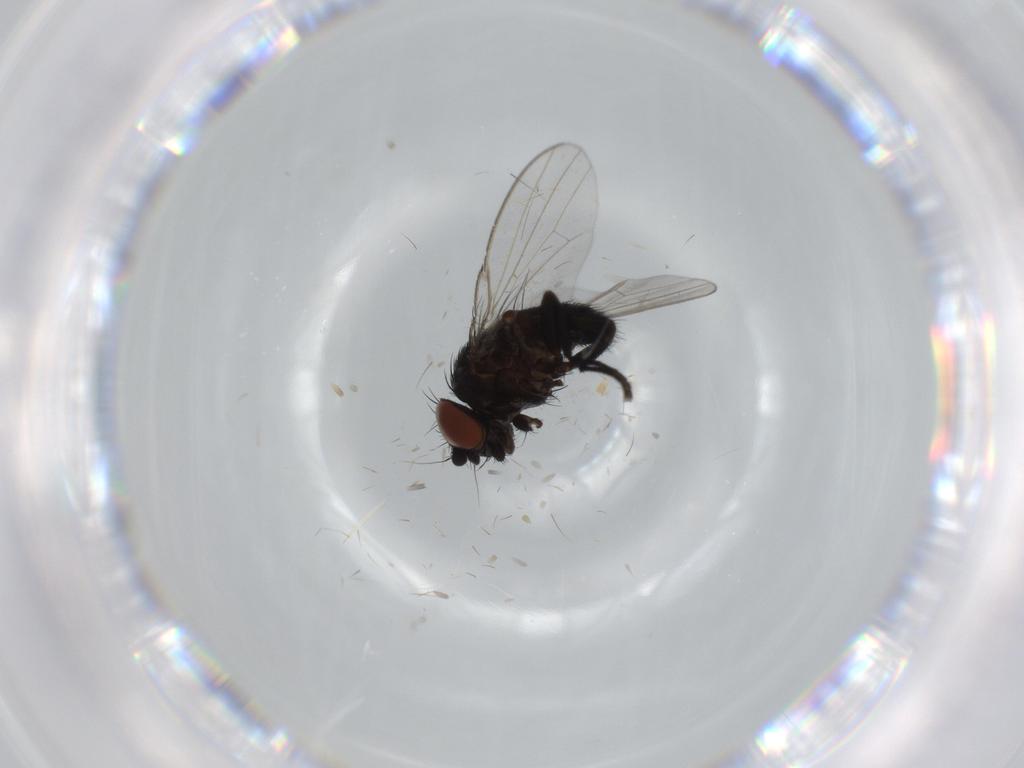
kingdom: Animalia
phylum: Arthropoda
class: Insecta
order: Diptera
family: Milichiidae
